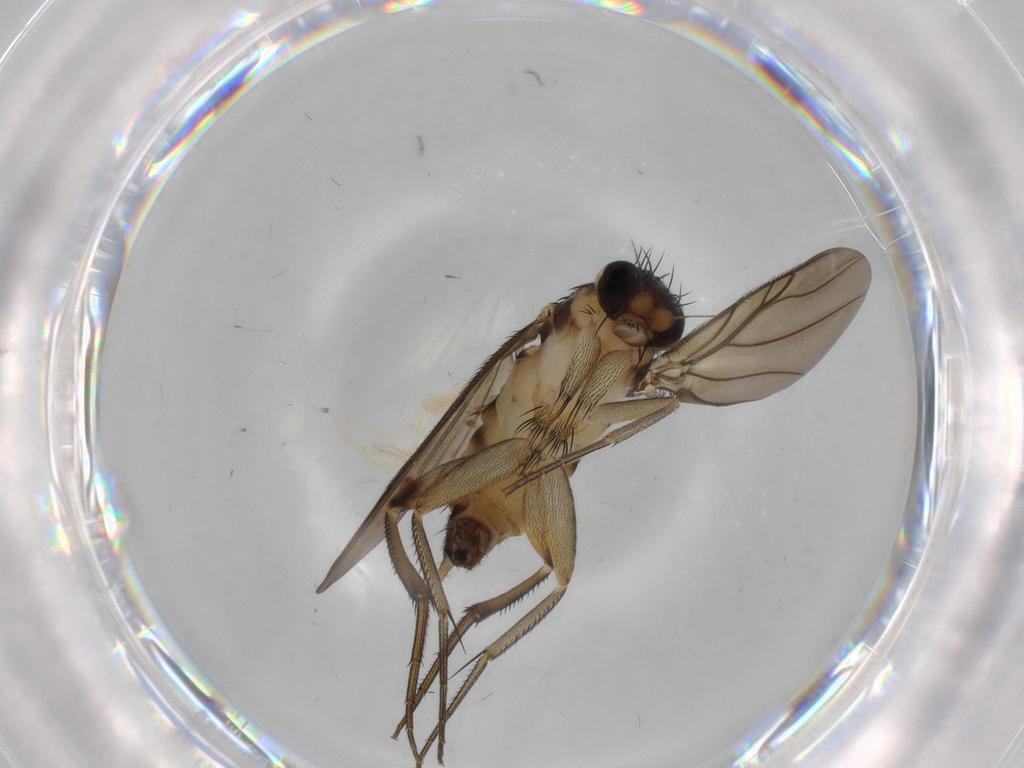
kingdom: Animalia
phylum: Arthropoda
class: Insecta
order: Diptera
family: Phoridae
